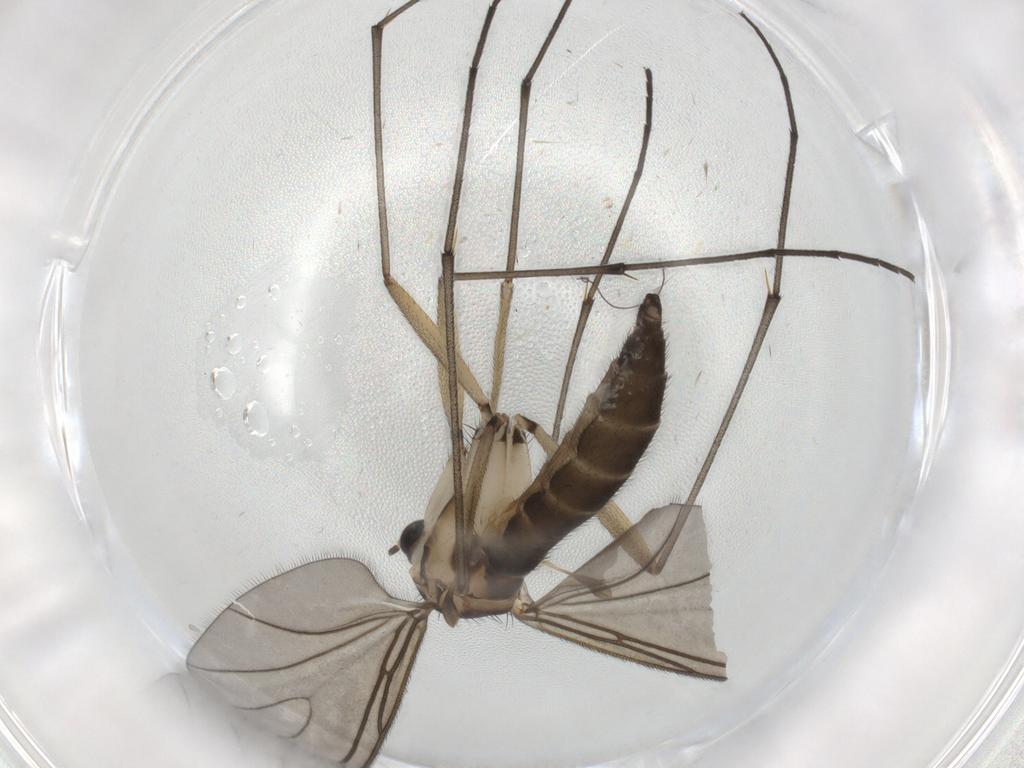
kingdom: Animalia
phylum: Arthropoda
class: Insecta
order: Diptera
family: Sciaridae
